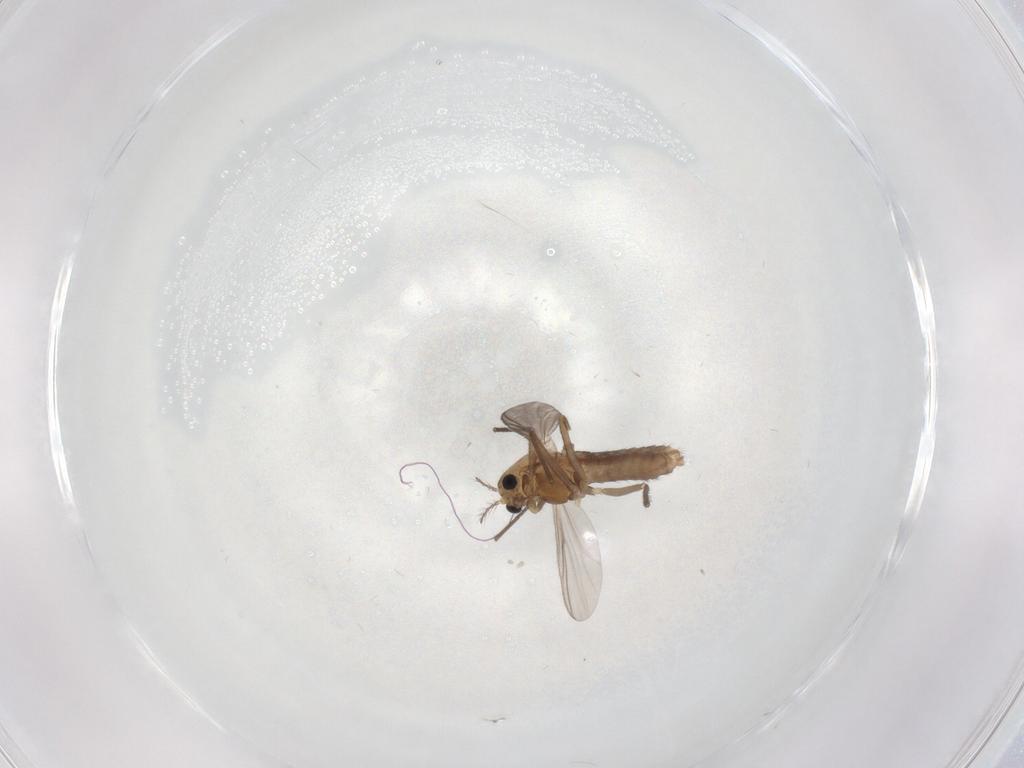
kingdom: Animalia
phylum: Arthropoda
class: Insecta
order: Diptera
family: Chironomidae
